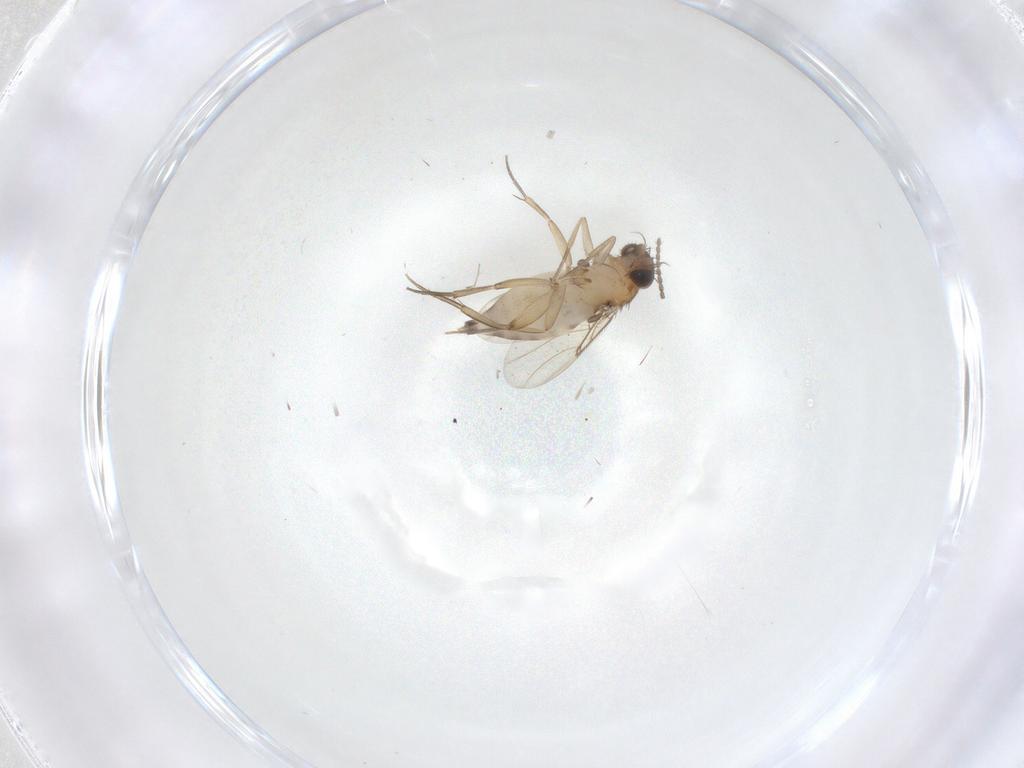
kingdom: Animalia
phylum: Arthropoda
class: Insecta
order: Diptera
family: Phoridae
